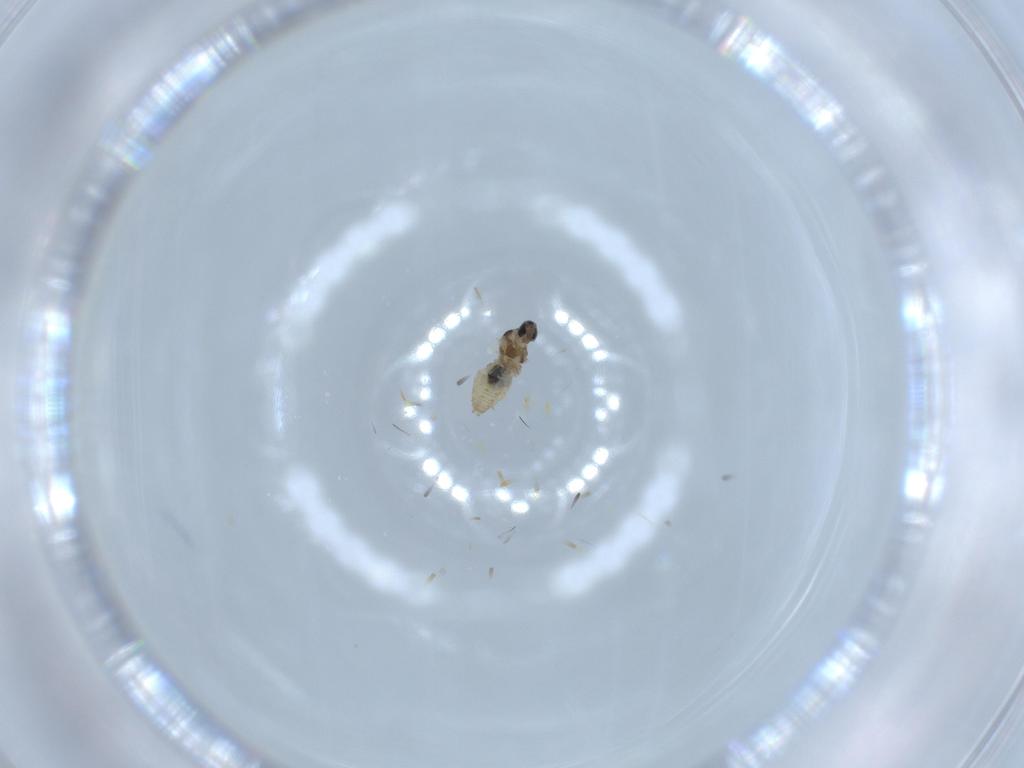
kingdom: Animalia
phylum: Arthropoda
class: Insecta
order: Diptera
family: Cecidomyiidae
